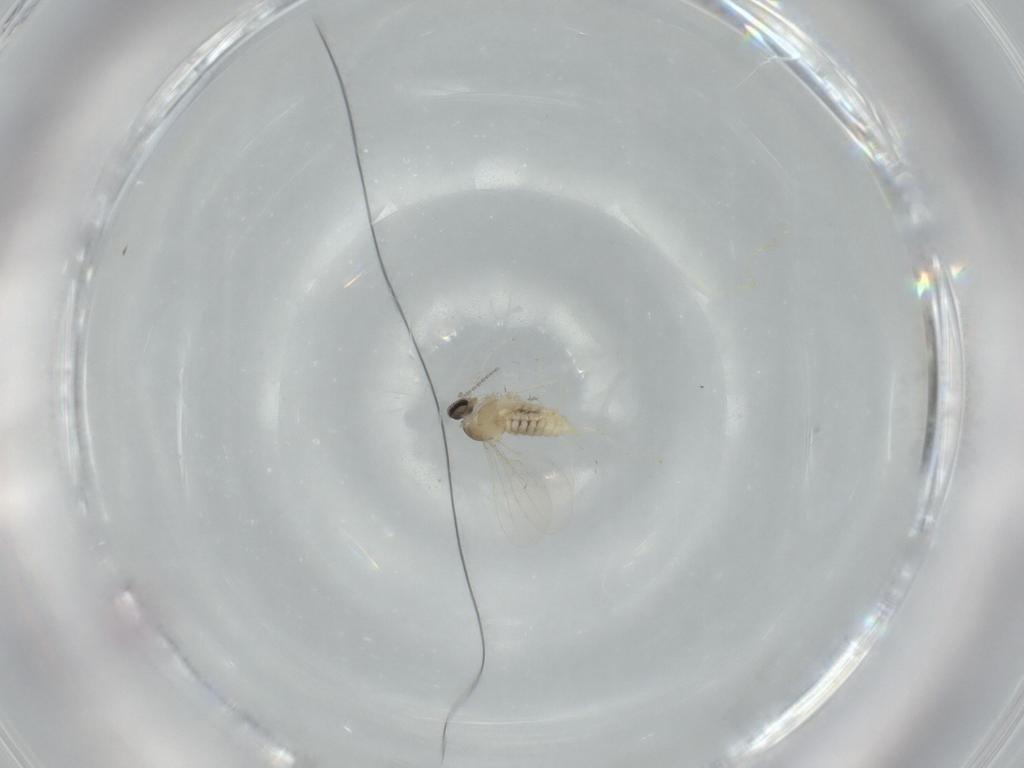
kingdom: Animalia
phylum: Arthropoda
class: Insecta
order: Diptera
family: Cecidomyiidae
